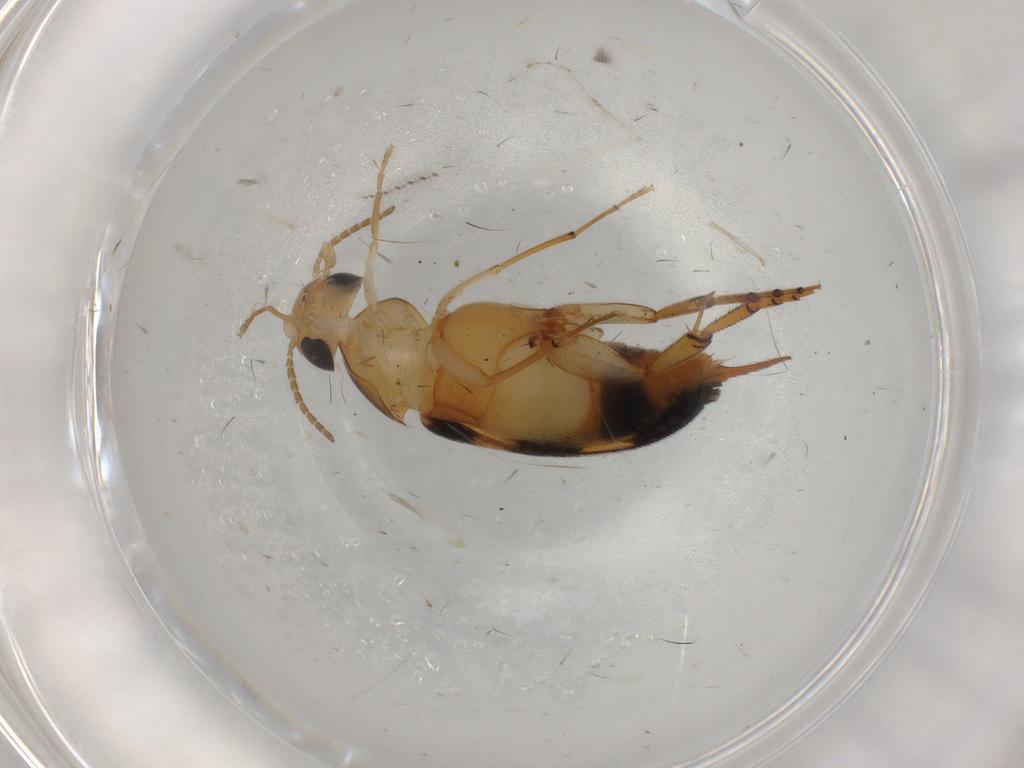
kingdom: Animalia
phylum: Arthropoda
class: Insecta
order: Coleoptera
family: Mordellidae
